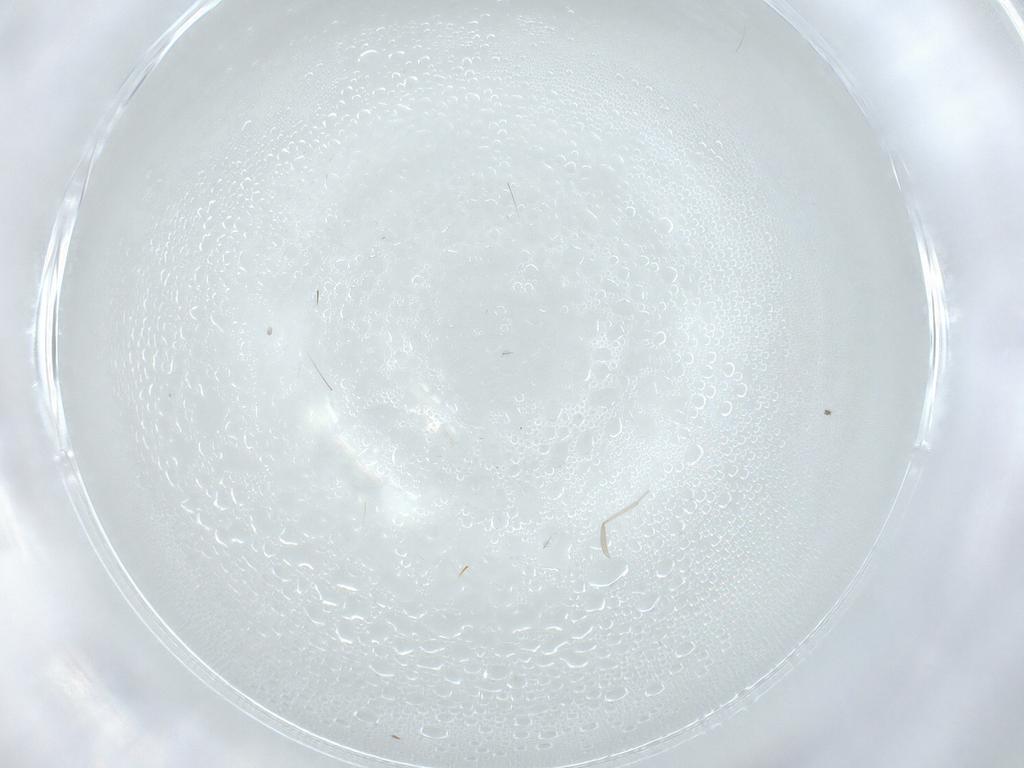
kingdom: Animalia
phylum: Arthropoda
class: Insecta
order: Diptera
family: Cecidomyiidae
